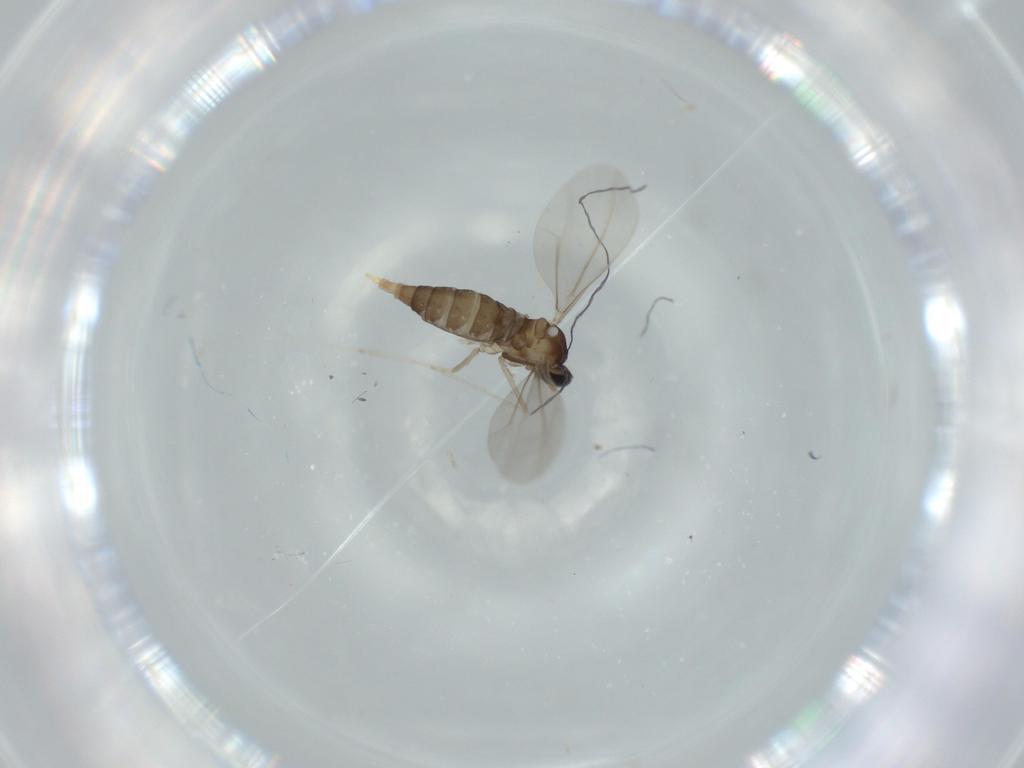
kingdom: Animalia
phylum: Arthropoda
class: Insecta
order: Diptera
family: Cecidomyiidae
